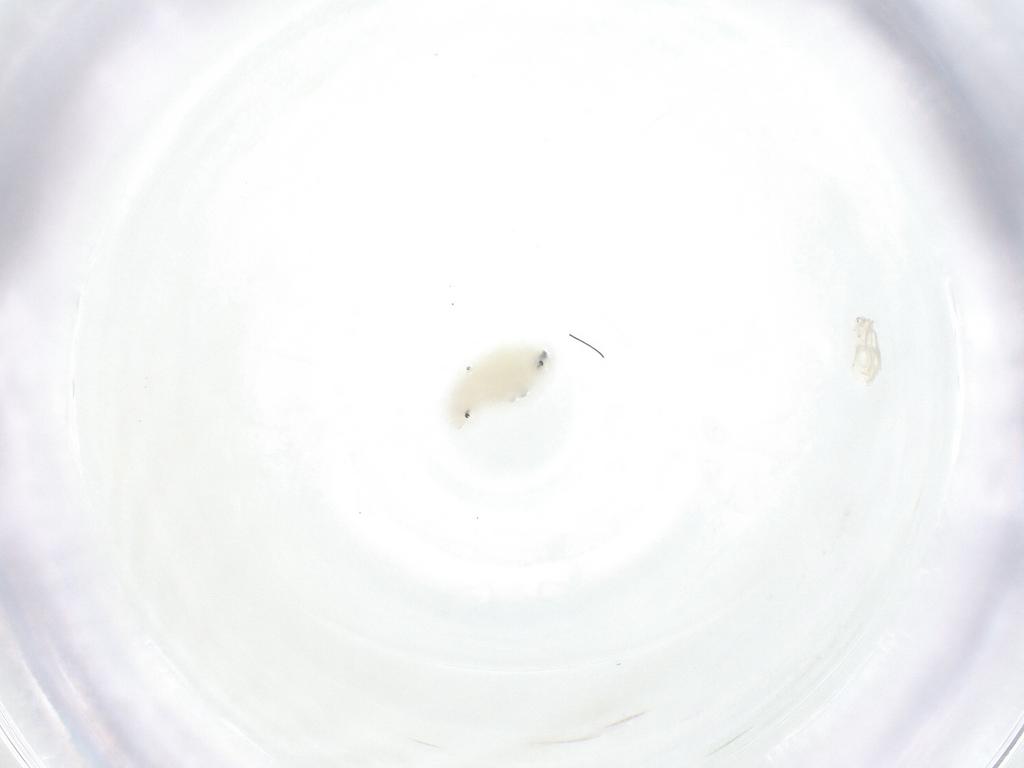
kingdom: Animalia
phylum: Arthropoda
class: Insecta
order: Diptera
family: Fergusoninidae
